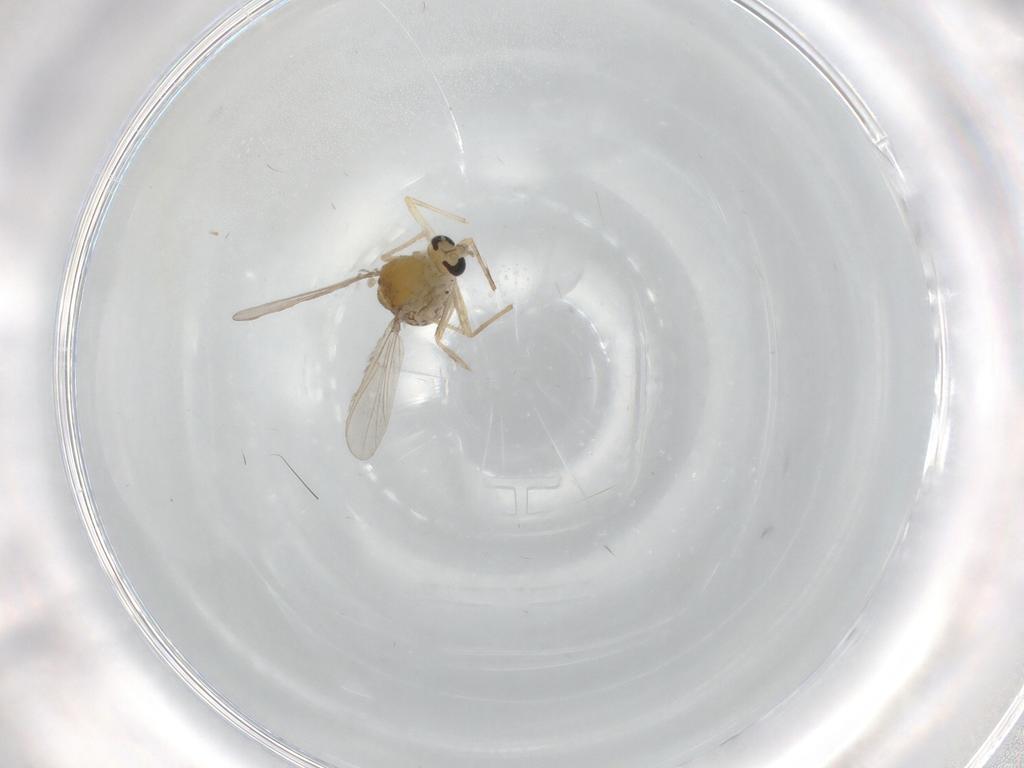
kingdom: Animalia
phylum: Arthropoda
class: Insecta
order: Diptera
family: Chironomidae
